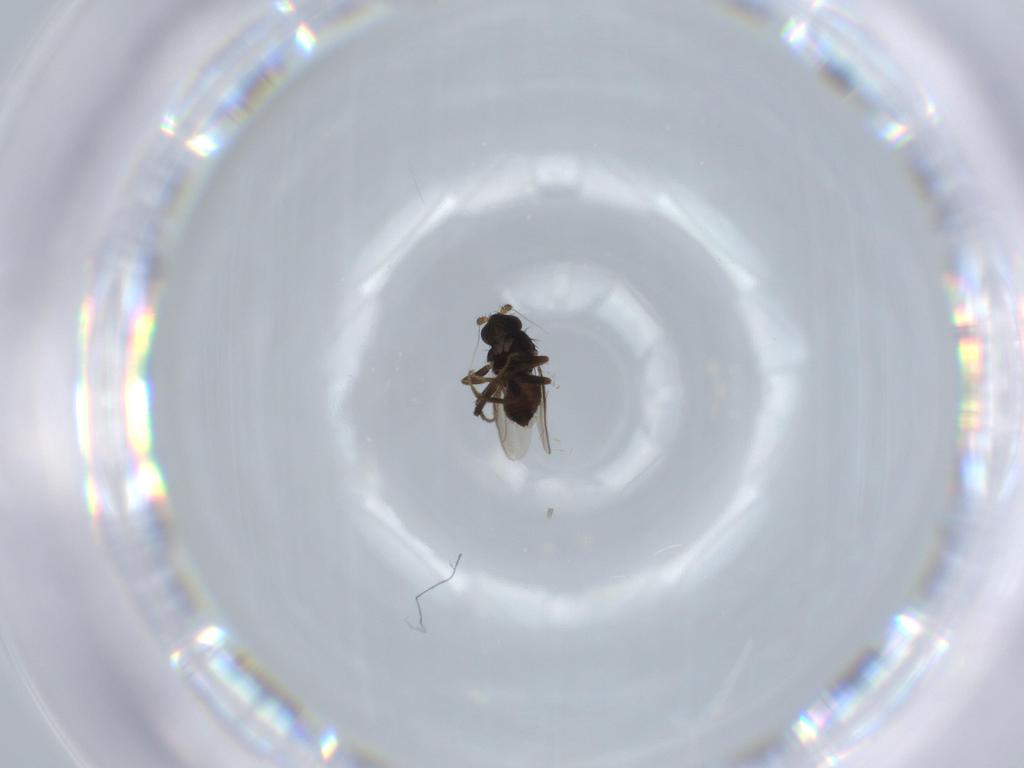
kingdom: Animalia
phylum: Arthropoda
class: Insecta
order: Diptera
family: Sphaeroceridae
